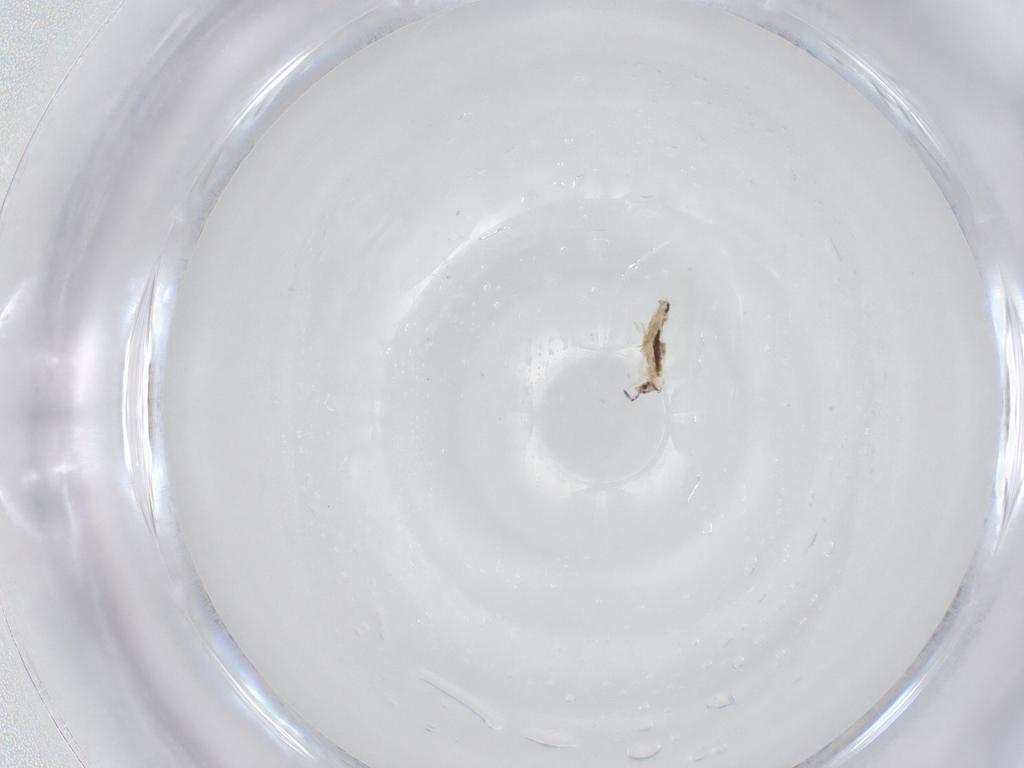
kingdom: Animalia
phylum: Arthropoda
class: Collembola
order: Entomobryomorpha
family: Entomobryidae
